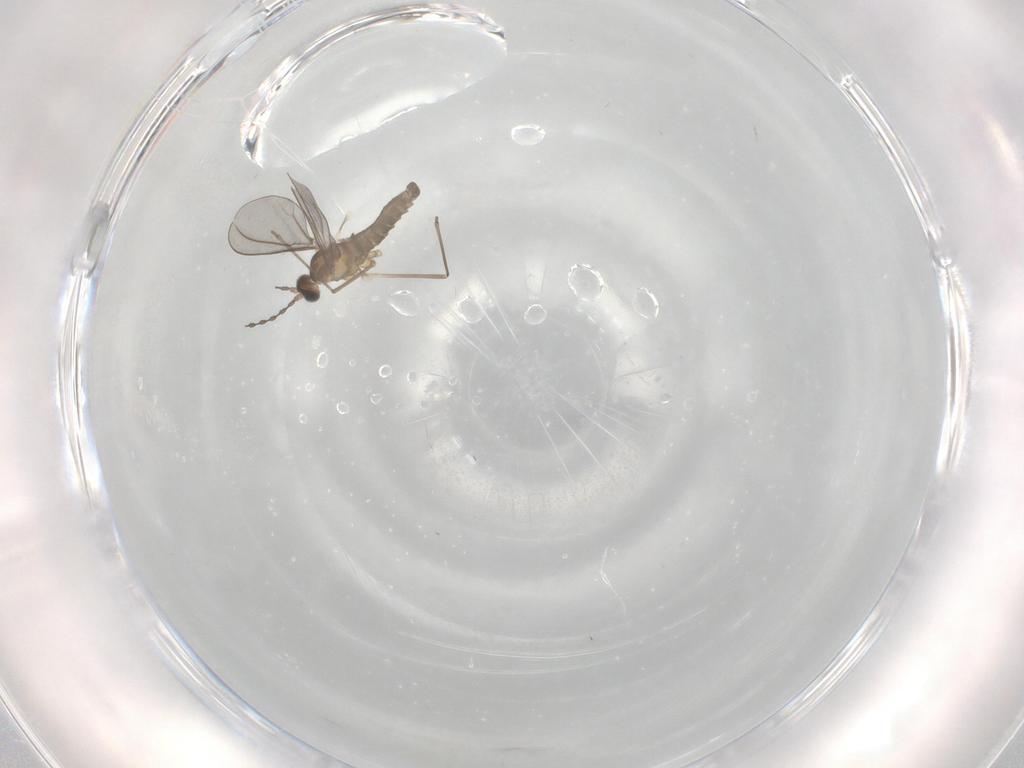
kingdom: Animalia
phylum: Arthropoda
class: Insecta
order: Diptera
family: Cecidomyiidae
